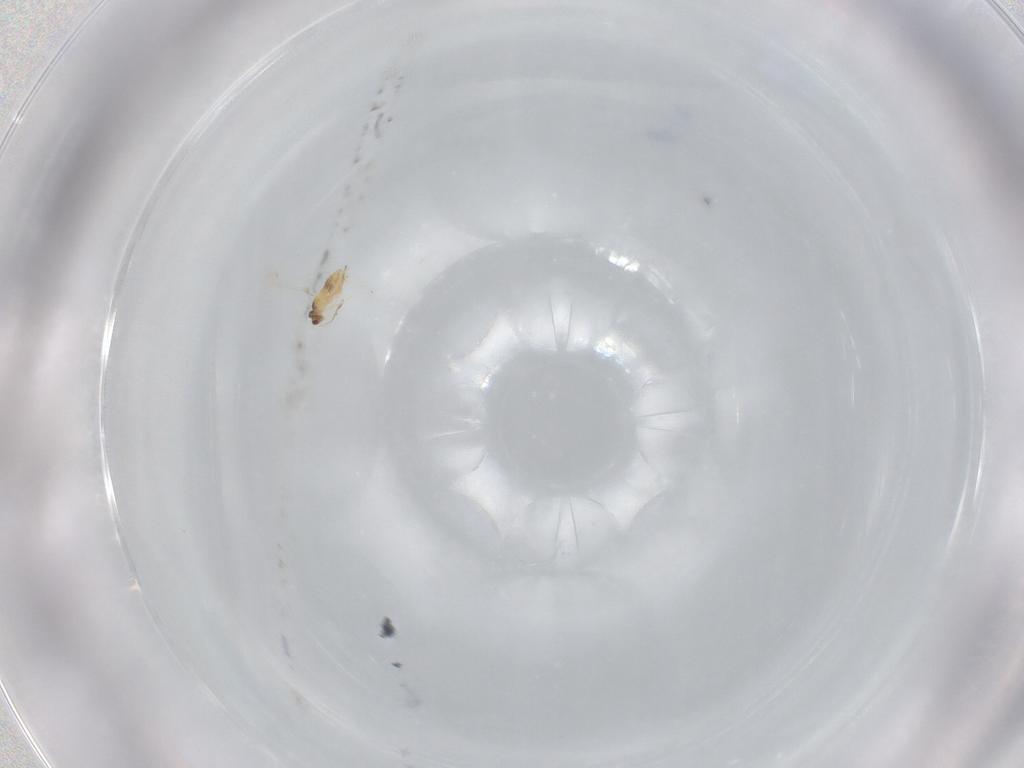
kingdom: Animalia
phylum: Arthropoda
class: Insecta
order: Hymenoptera
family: Mymaridae
